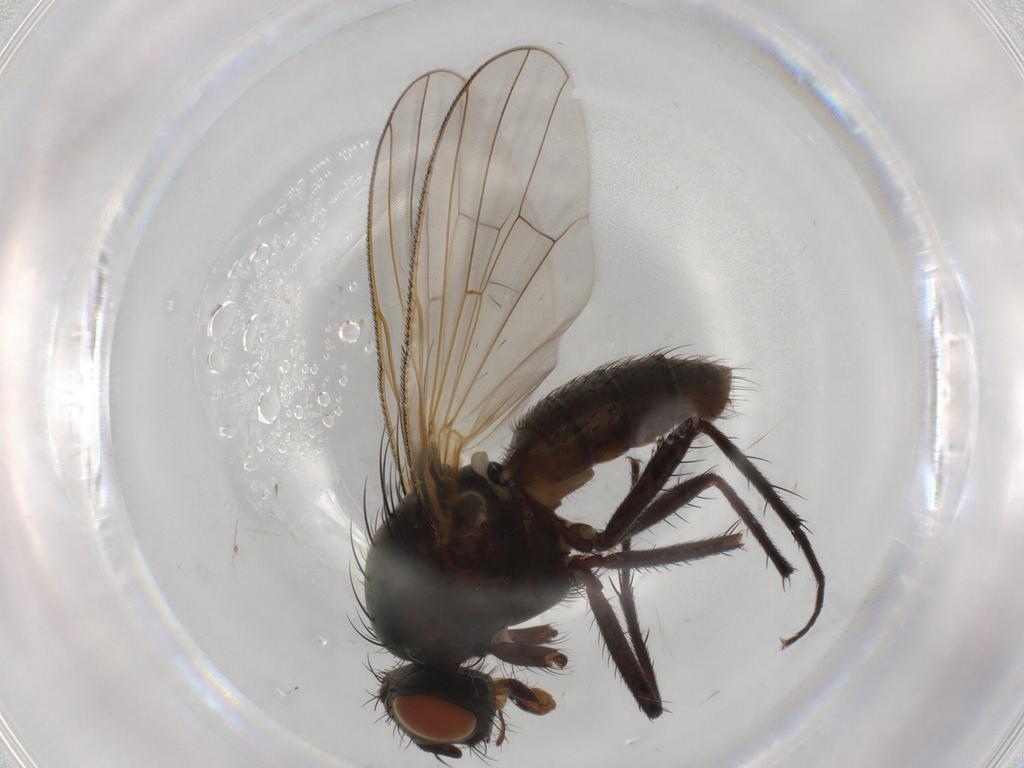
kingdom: Animalia
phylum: Arthropoda
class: Insecta
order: Diptera
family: Anthomyiidae
